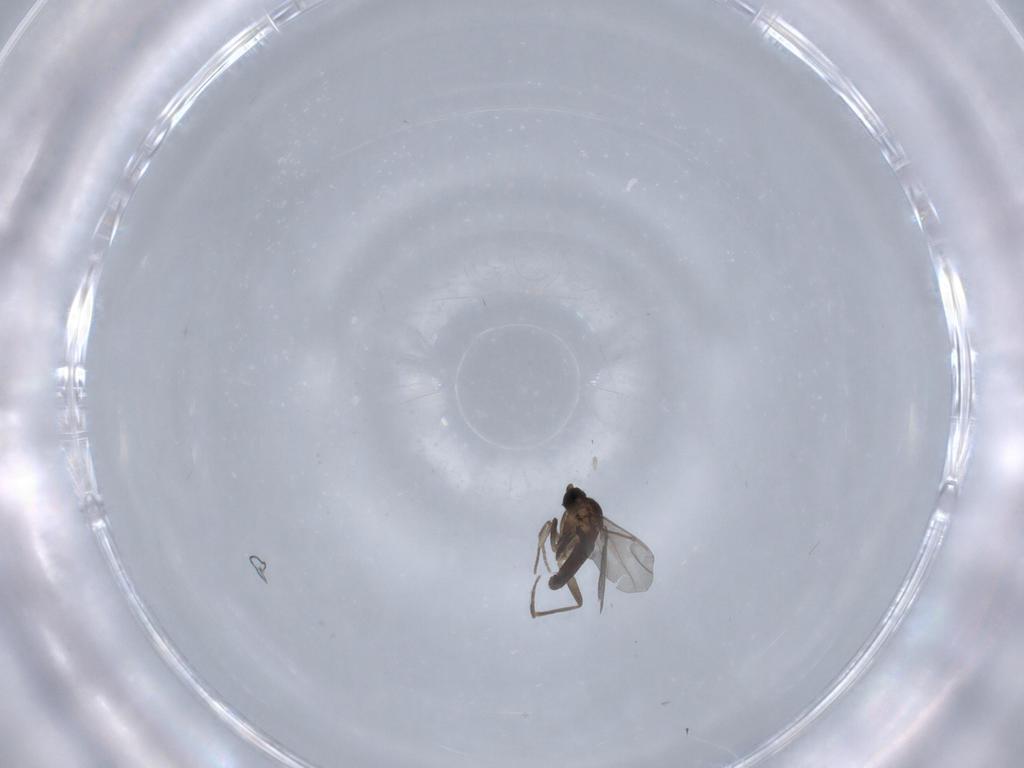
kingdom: Animalia
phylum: Arthropoda
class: Insecta
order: Diptera
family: Phoridae
